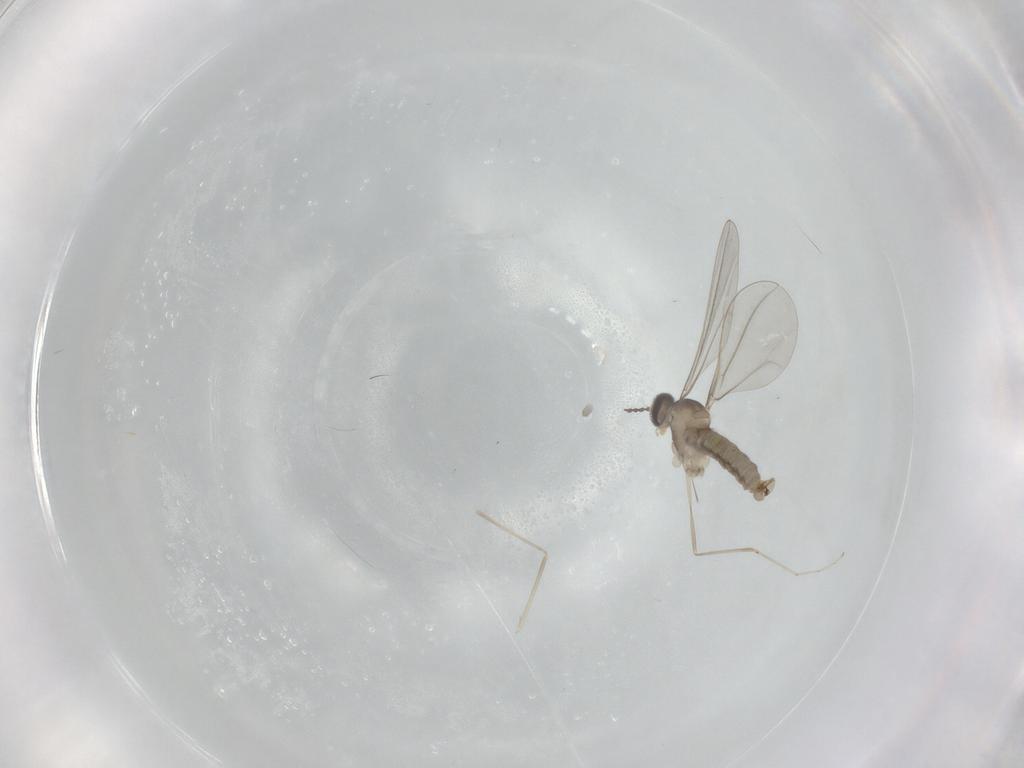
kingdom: Animalia
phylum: Arthropoda
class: Insecta
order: Diptera
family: Cecidomyiidae
